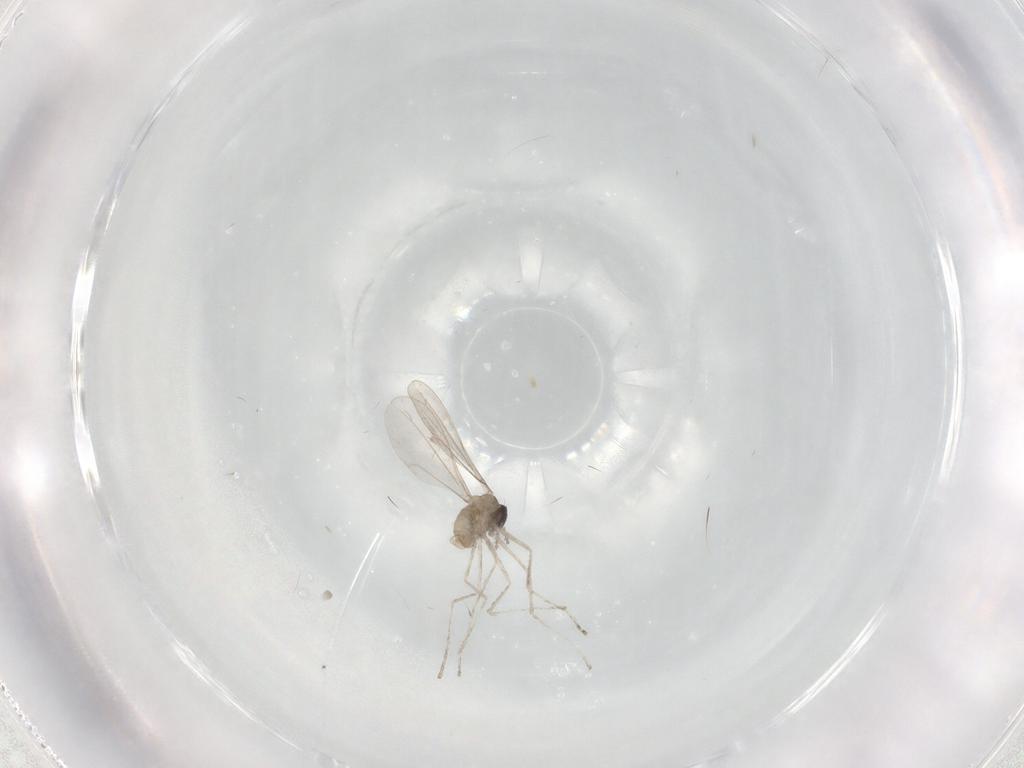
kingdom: Animalia
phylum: Arthropoda
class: Insecta
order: Diptera
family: Cecidomyiidae
